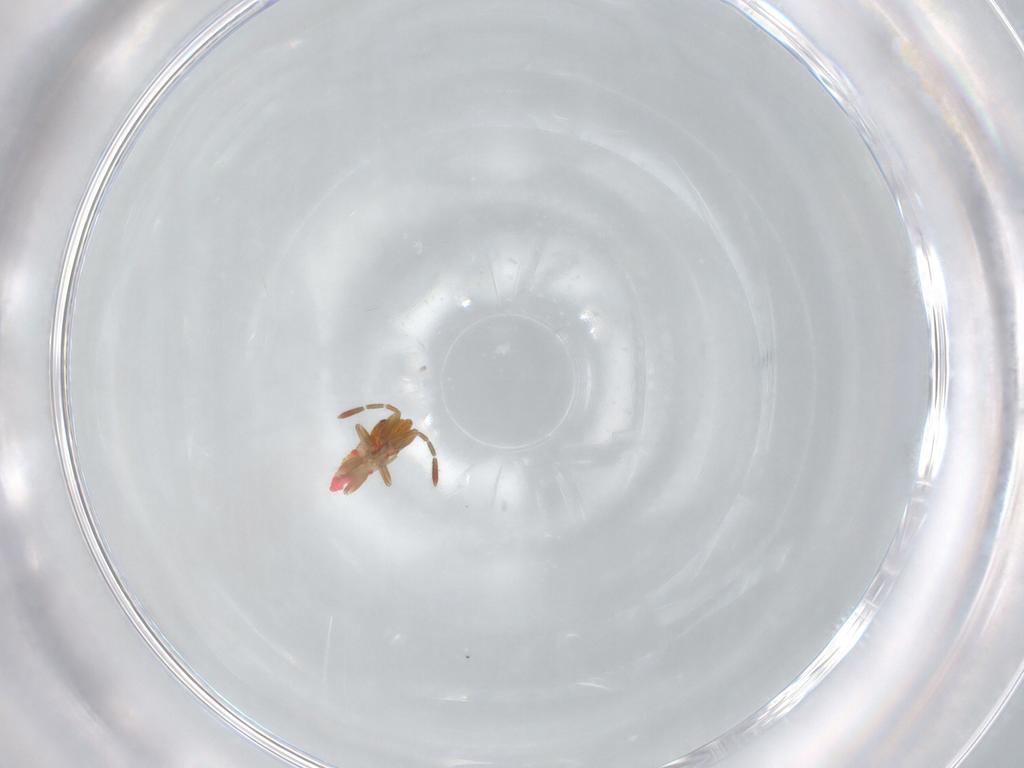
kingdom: Animalia
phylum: Arthropoda
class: Insecta
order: Hemiptera
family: Miridae
